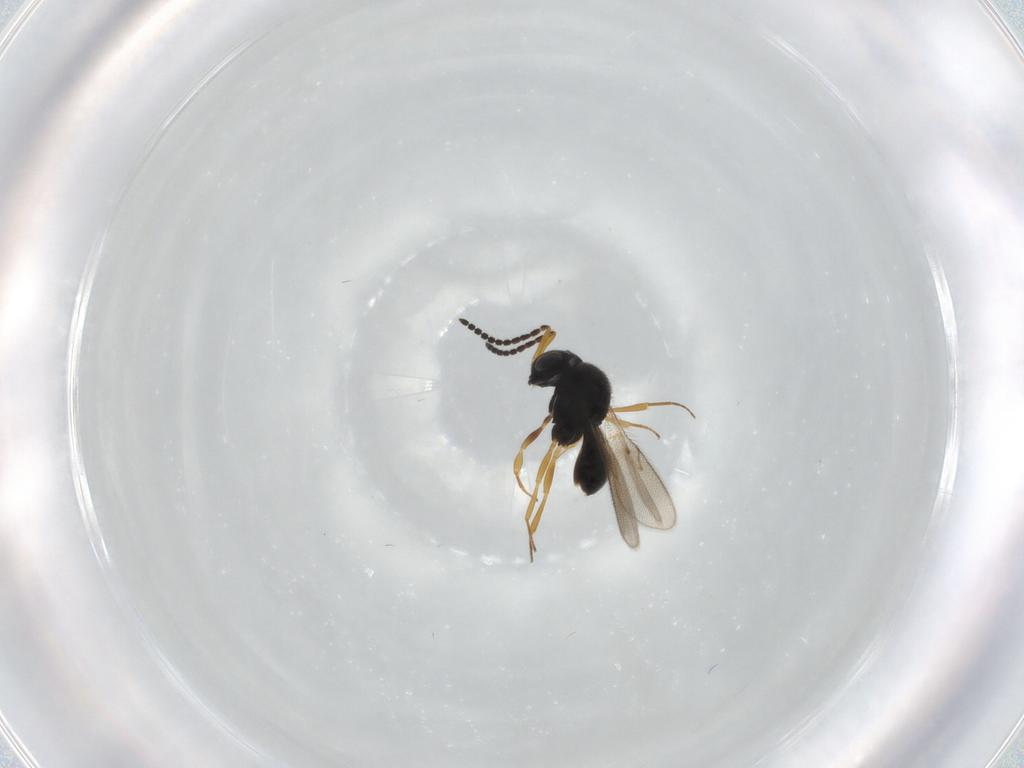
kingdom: Animalia
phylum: Arthropoda
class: Insecta
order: Hymenoptera
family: Scelionidae
